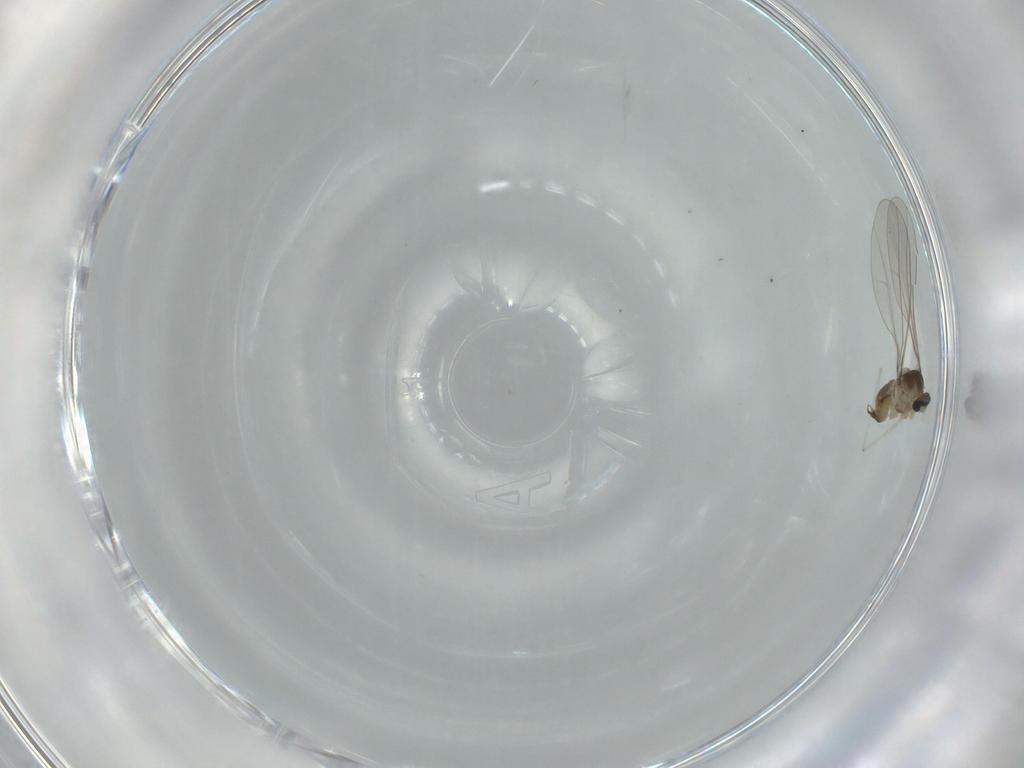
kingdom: Animalia
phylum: Arthropoda
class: Insecta
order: Diptera
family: Cecidomyiidae
